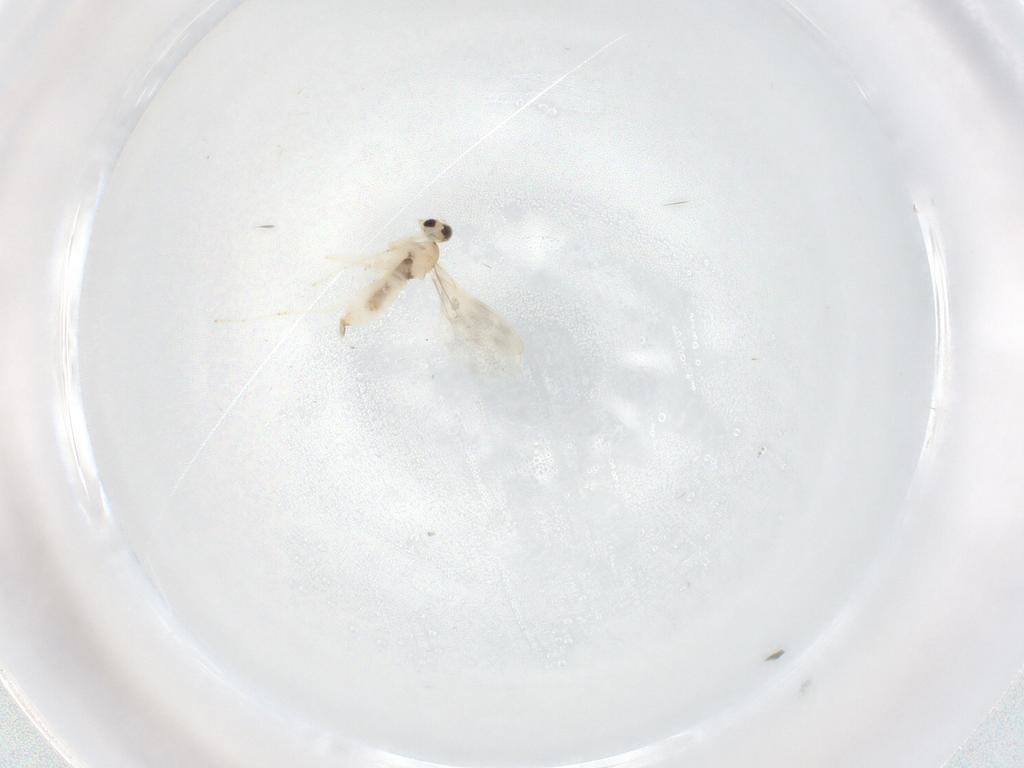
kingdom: Animalia
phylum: Arthropoda
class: Insecta
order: Diptera
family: Cecidomyiidae
